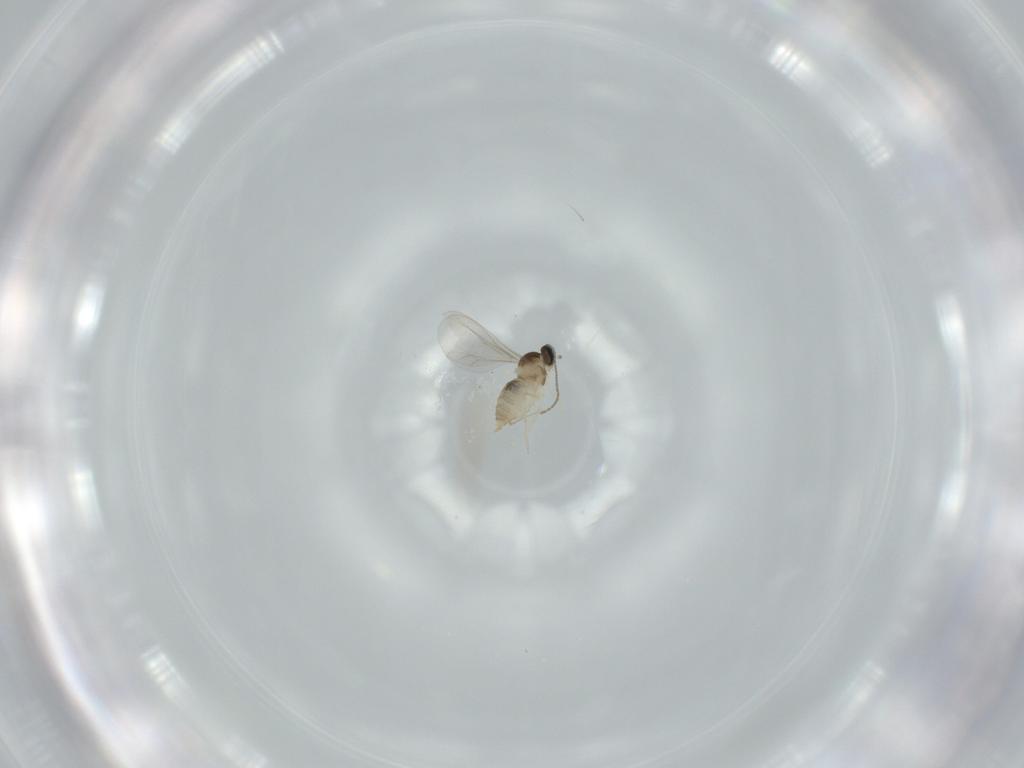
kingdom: Animalia
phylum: Arthropoda
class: Insecta
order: Diptera
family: Cecidomyiidae
